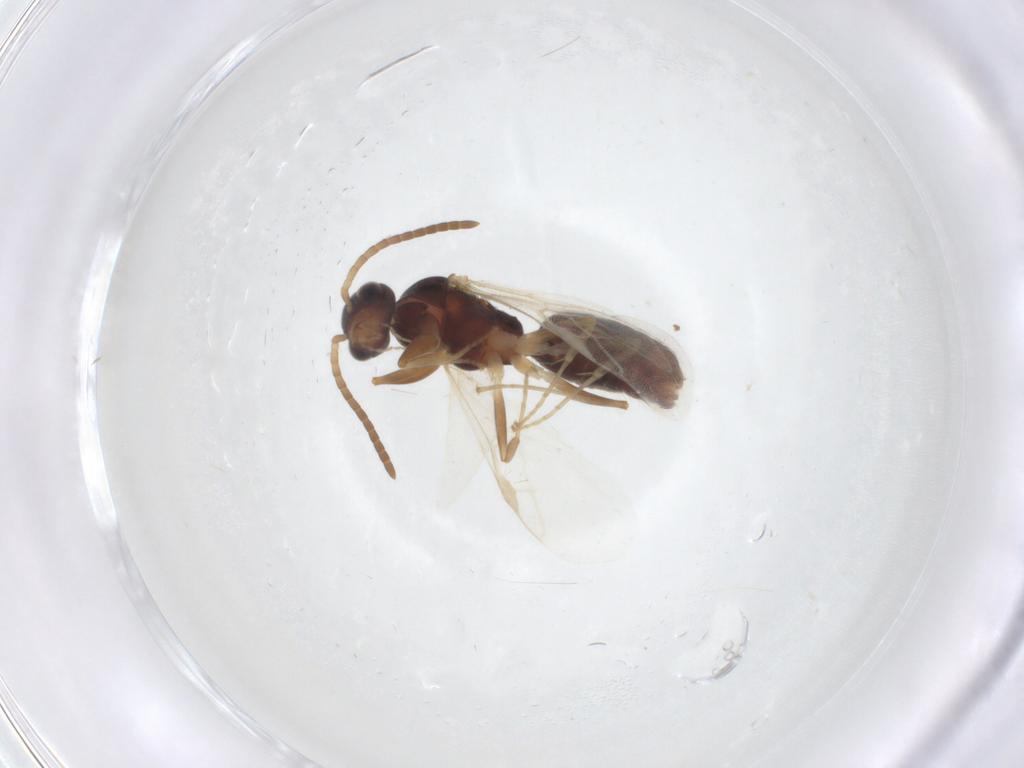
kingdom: Animalia
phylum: Arthropoda
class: Insecta
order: Hymenoptera
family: Formicidae
